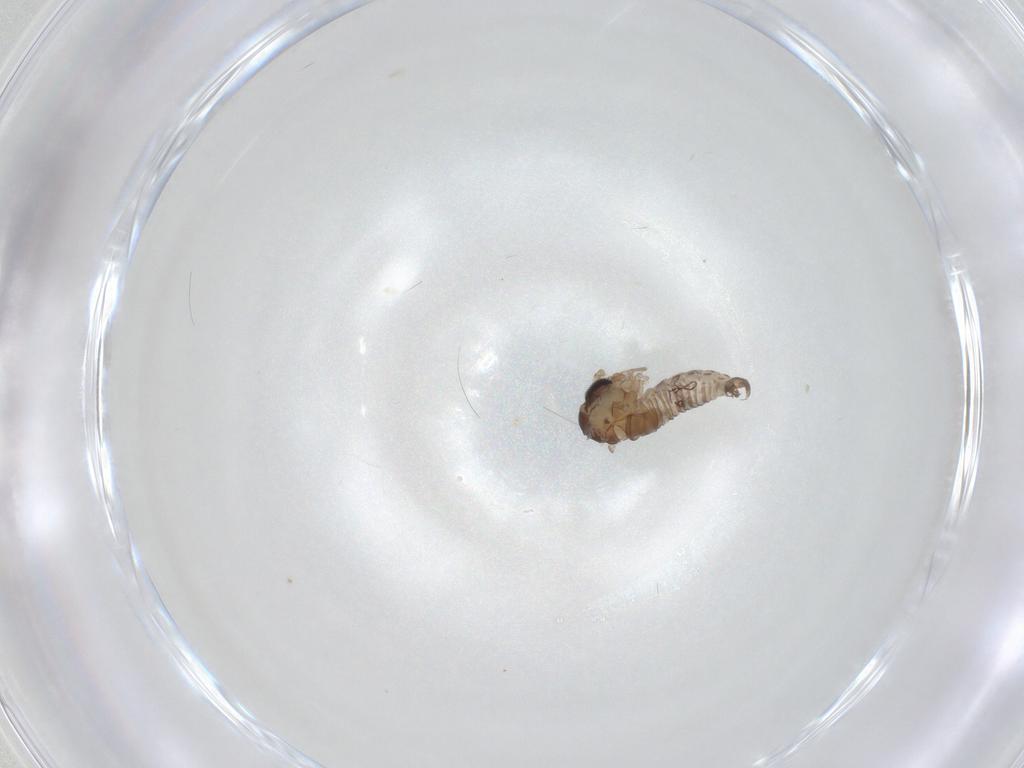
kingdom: Animalia
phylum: Arthropoda
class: Insecta
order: Diptera
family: Psychodidae
